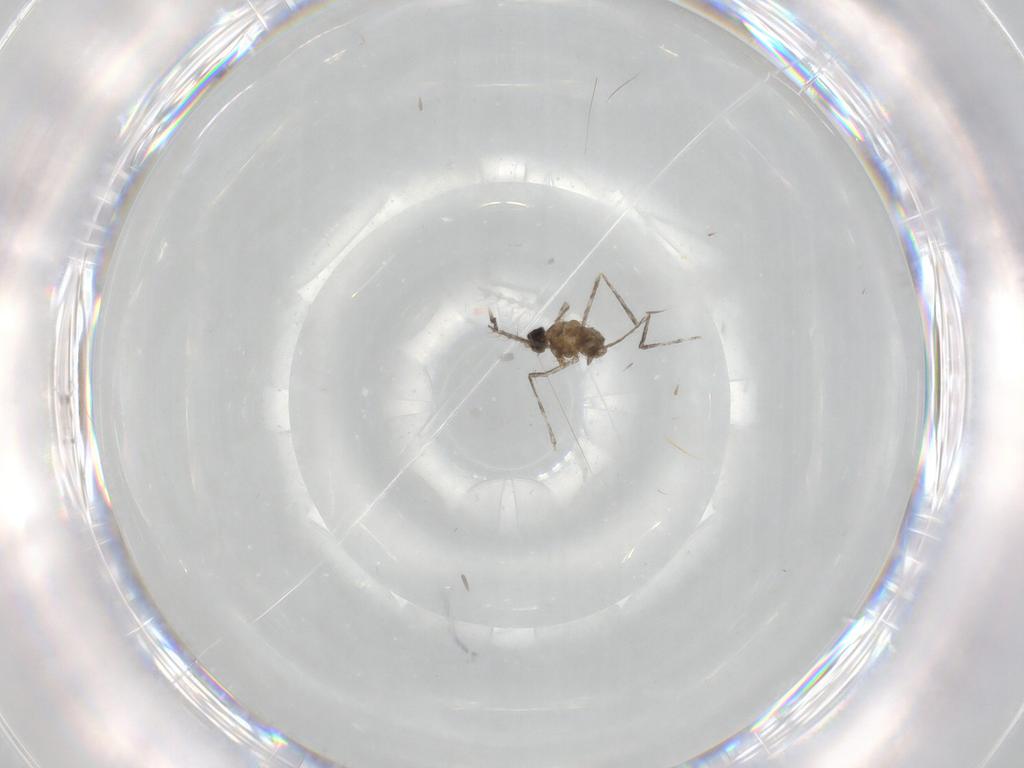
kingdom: Animalia
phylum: Arthropoda
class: Insecta
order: Diptera
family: Cecidomyiidae
